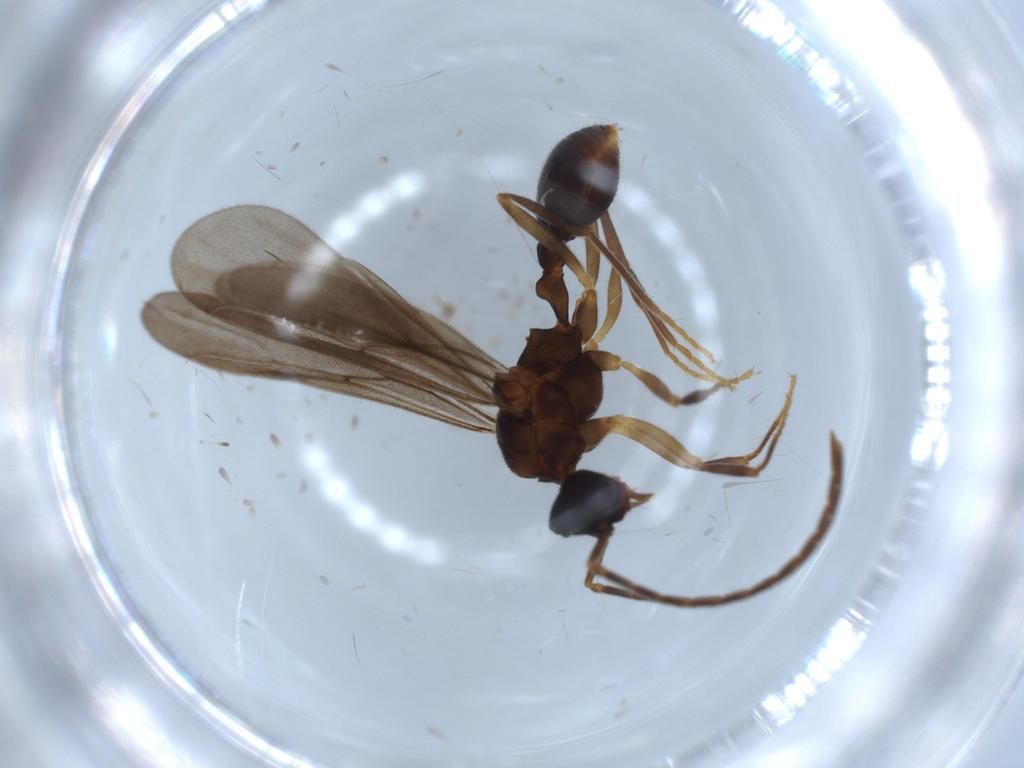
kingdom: Animalia
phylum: Arthropoda
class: Insecta
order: Hymenoptera
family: Formicidae
